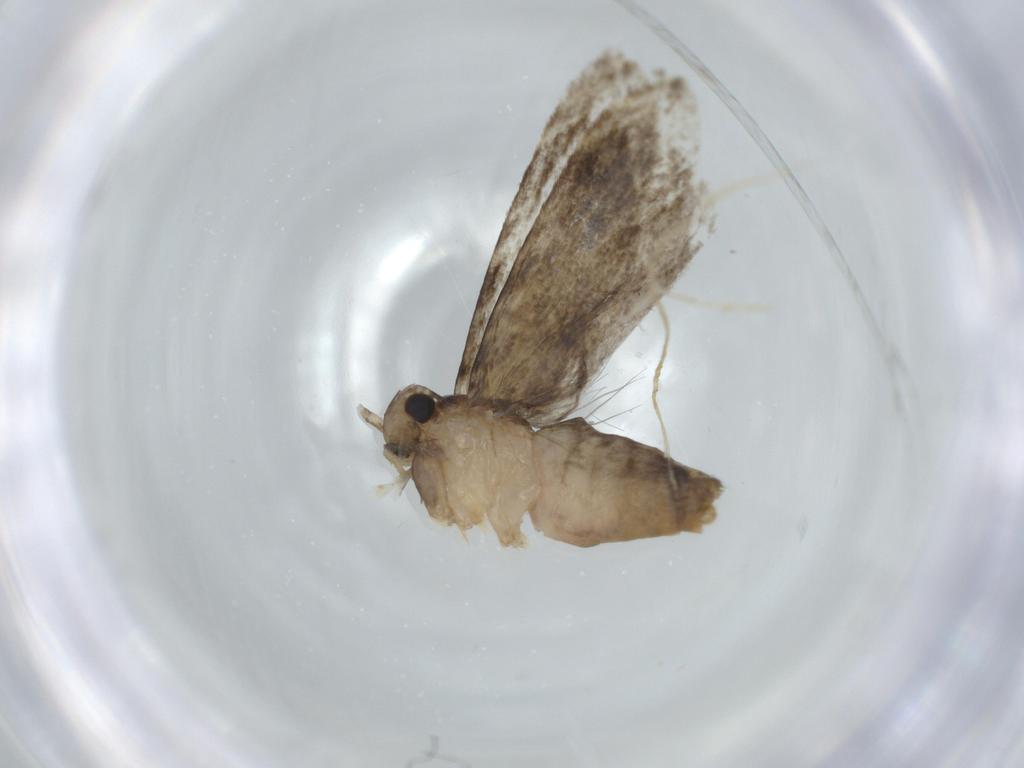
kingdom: Animalia
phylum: Arthropoda
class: Insecta
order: Lepidoptera
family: Tineidae
